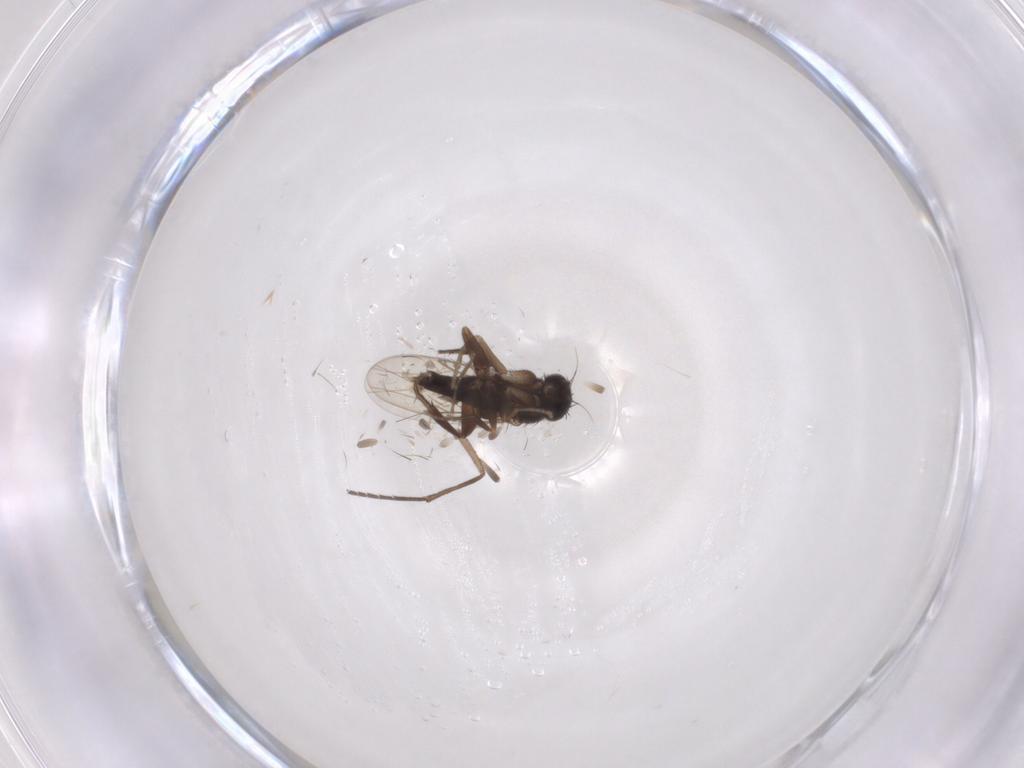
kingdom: Animalia
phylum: Arthropoda
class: Insecta
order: Diptera
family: Sciaridae
